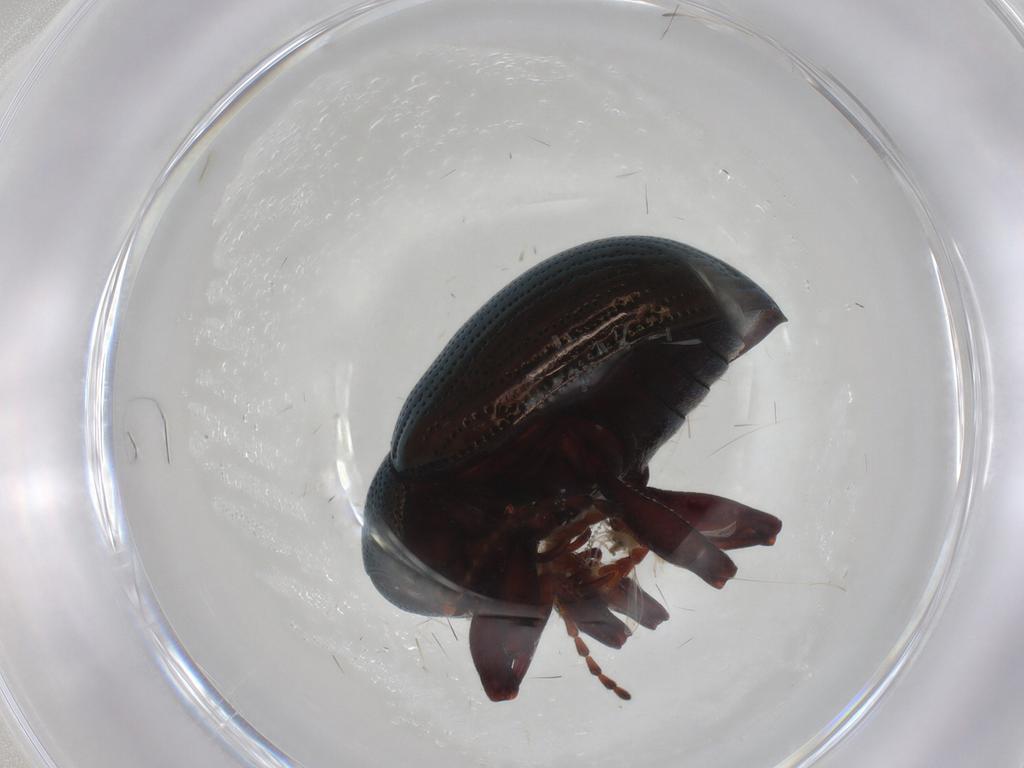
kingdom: Animalia
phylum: Arthropoda
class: Insecta
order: Coleoptera
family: Chrysomelidae
